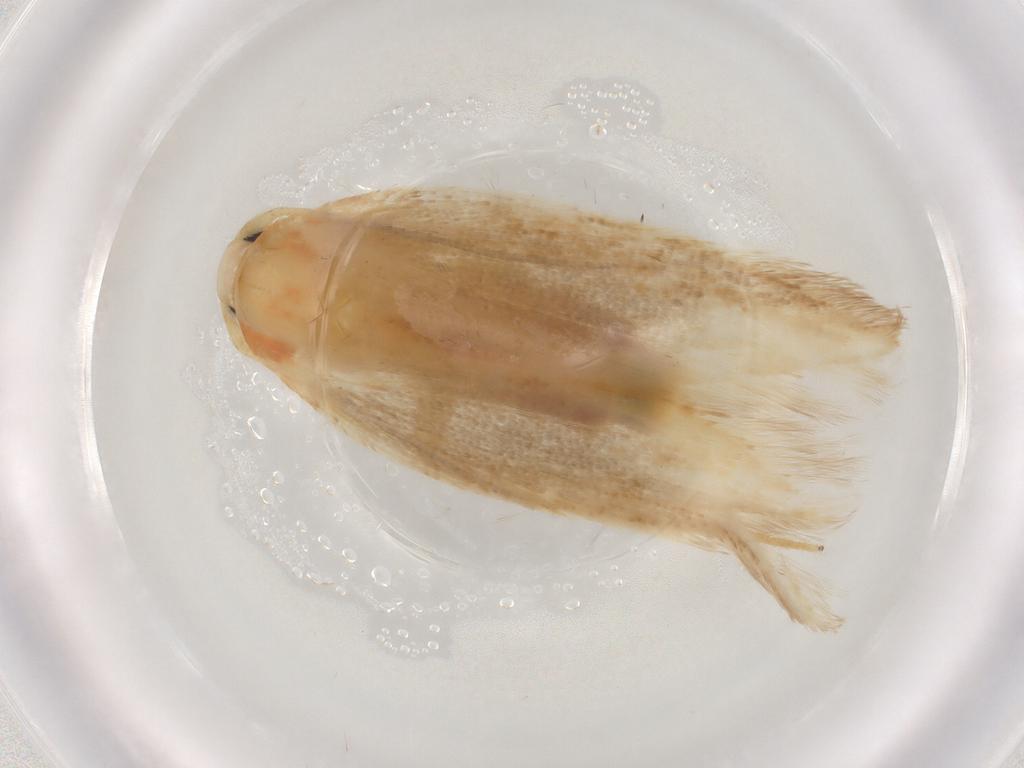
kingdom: Animalia
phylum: Arthropoda
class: Insecta
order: Lepidoptera
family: Geometridae
